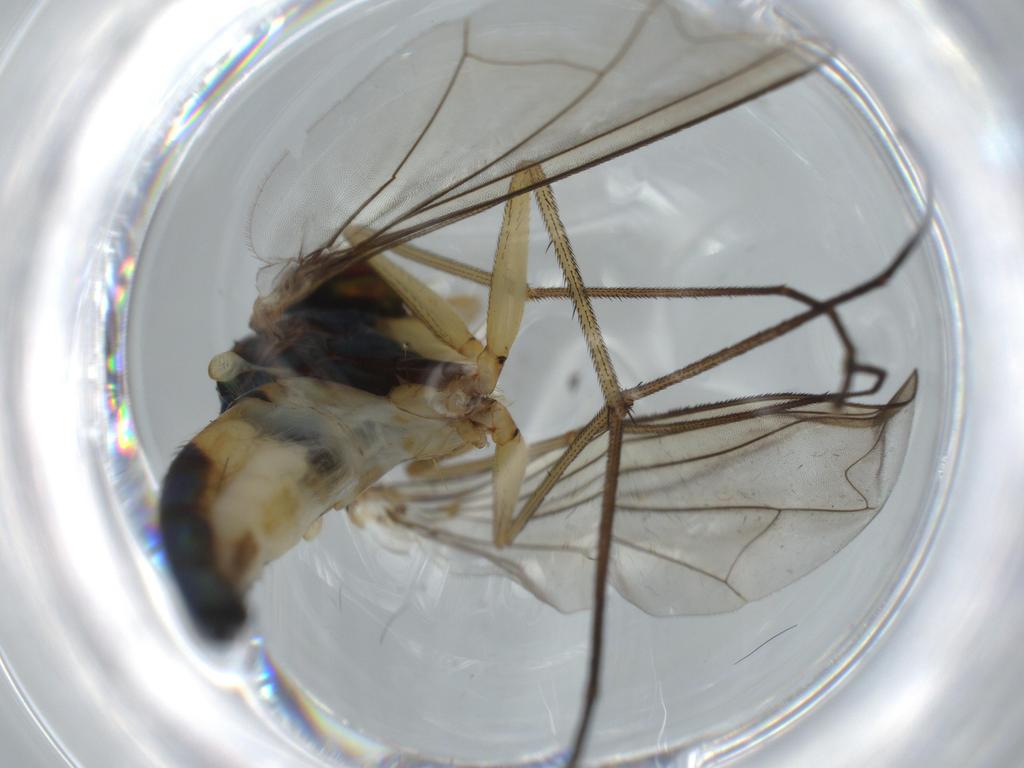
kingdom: Animalia
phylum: Arthropoda
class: Insecta
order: Diptera
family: Dolichopodidae
